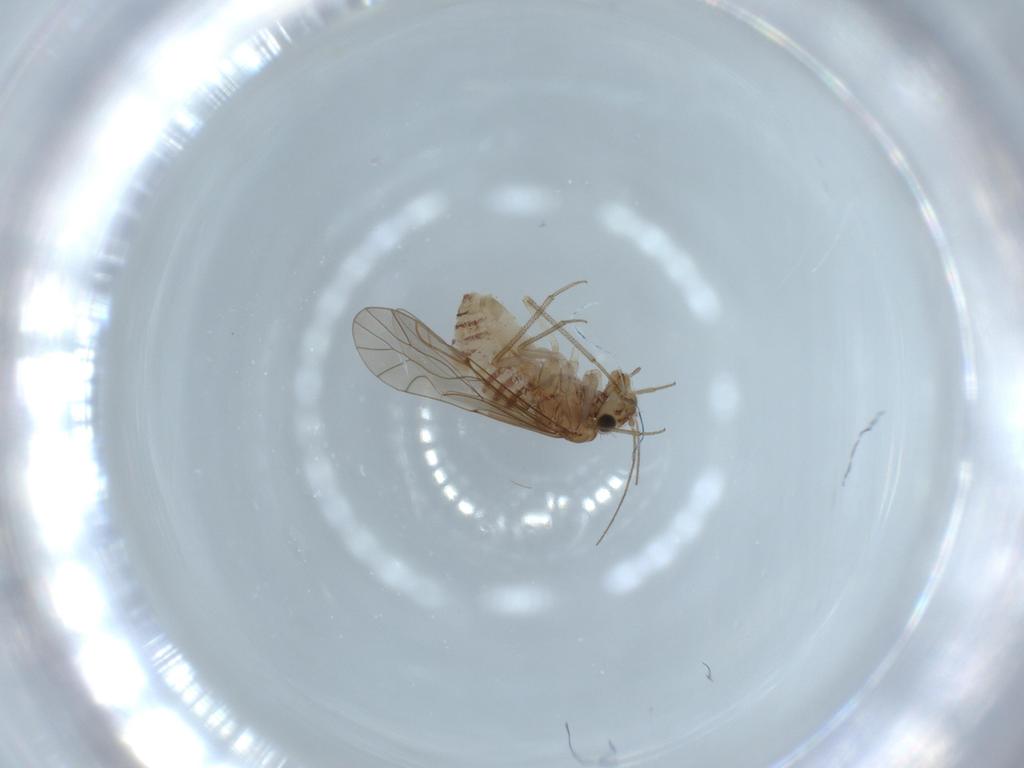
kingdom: Animalia
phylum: Arthropoda
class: Insecta
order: Psocodea
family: Lachesillidae
